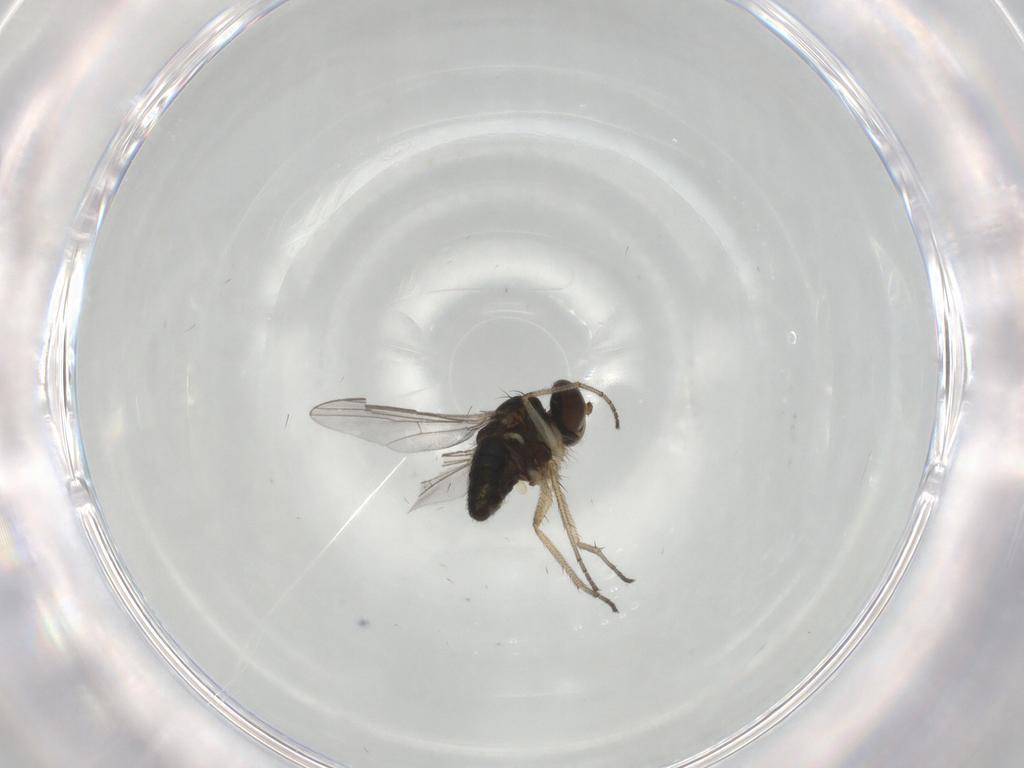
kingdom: Animalia
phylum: Arthropoda
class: Insecta
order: Diptera
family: Dolichopodidae
